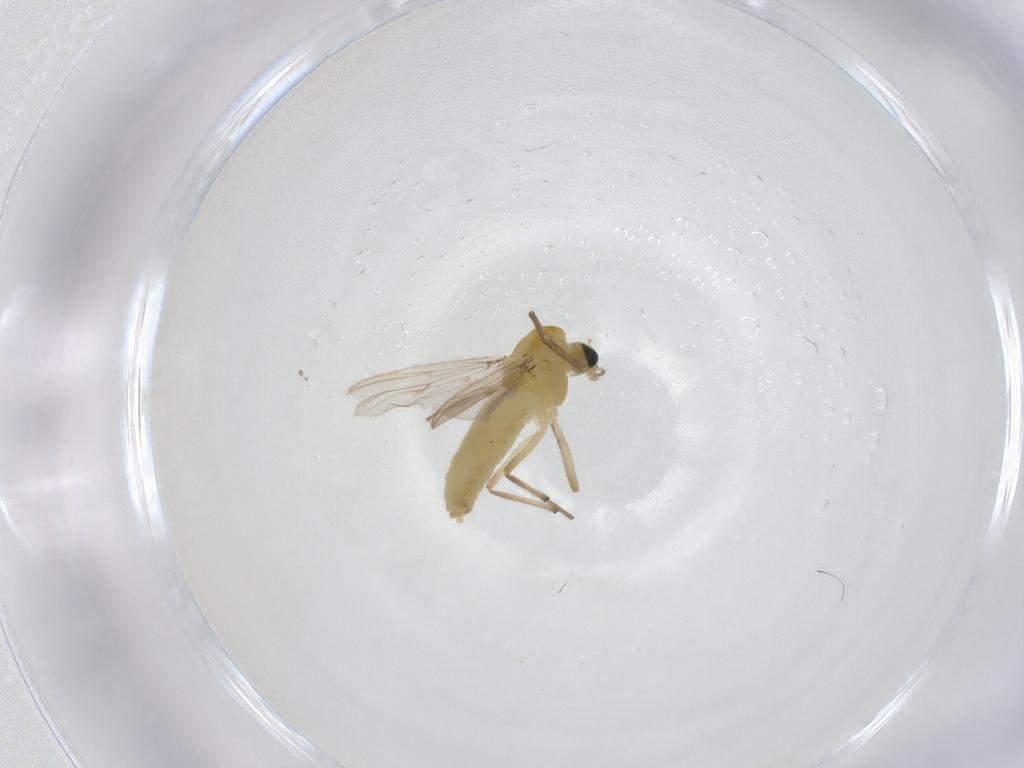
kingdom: Animalia
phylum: Arthropoda
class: Insecta
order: Diptera
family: Chironomidae
